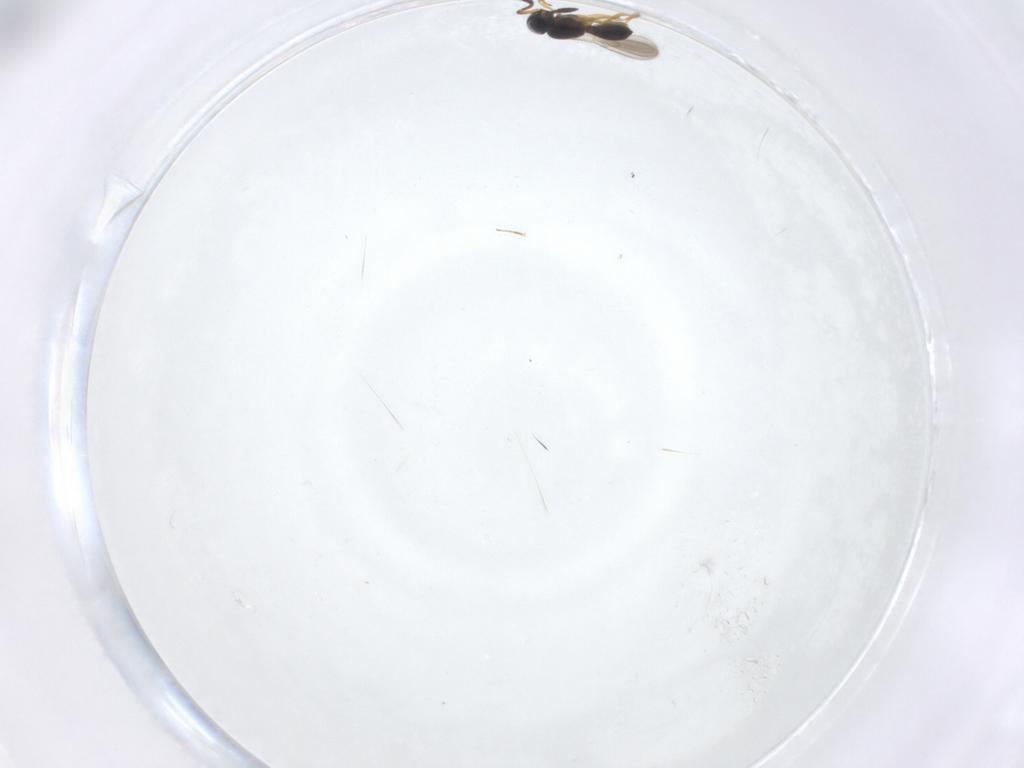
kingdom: Animalia
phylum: Arthropoda
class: Insecta
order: Hymenoptera
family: Scelionidae
